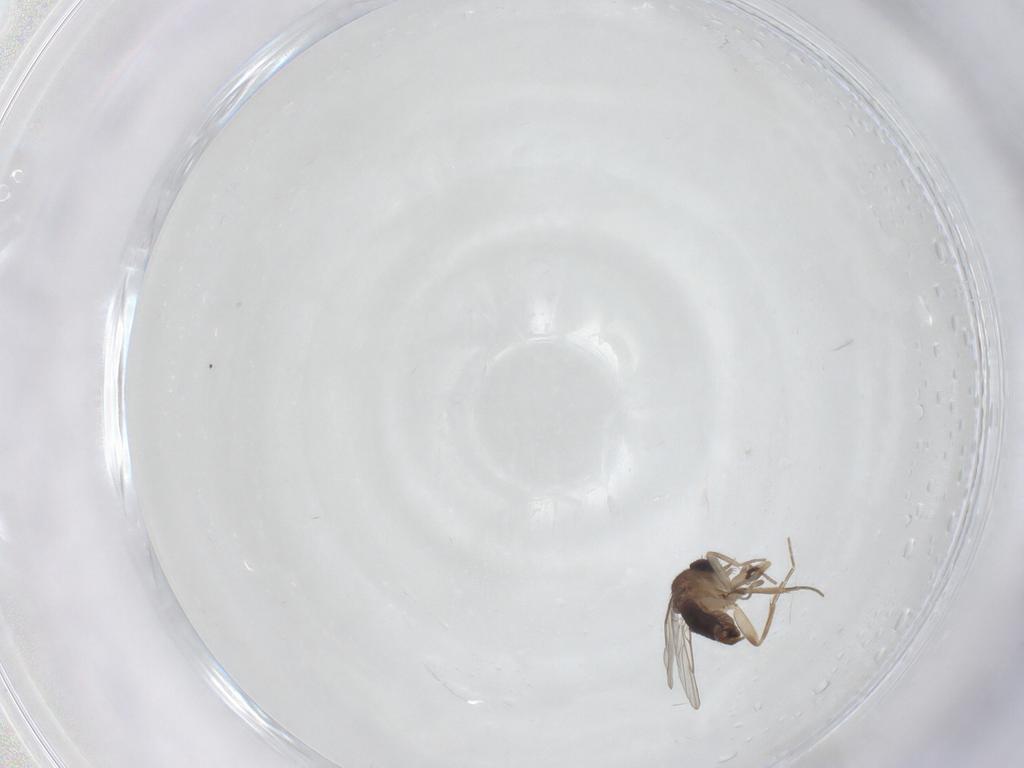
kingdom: Animalia
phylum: Arthropoda
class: Insecta
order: Diptera
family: Phoridae
